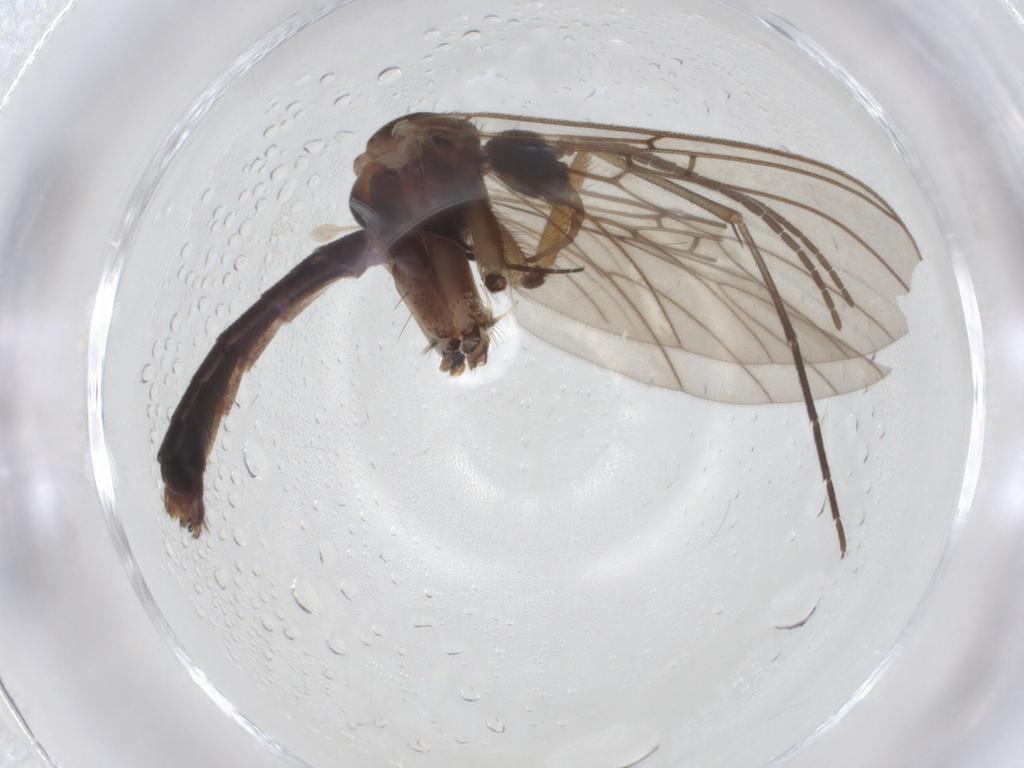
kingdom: Animalia
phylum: Arthropoda
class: Insecta
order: Diptera
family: Mycetophilidae
